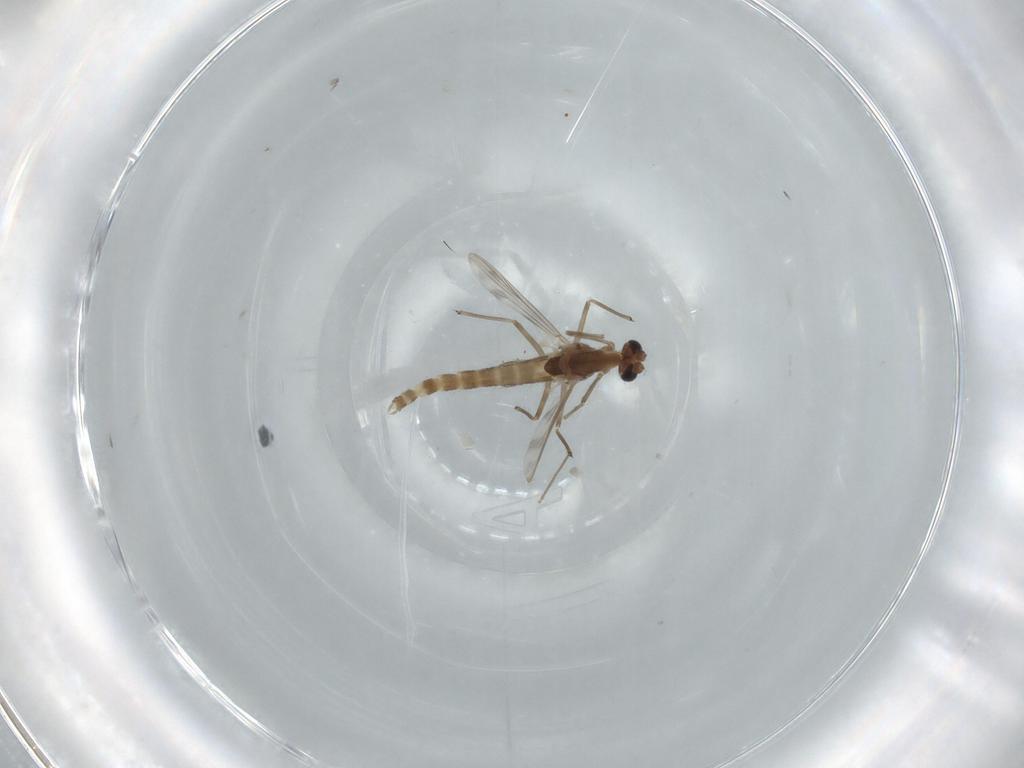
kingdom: Animalia
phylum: Arthropoda
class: Insecta
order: Diptera
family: Chironomidae
